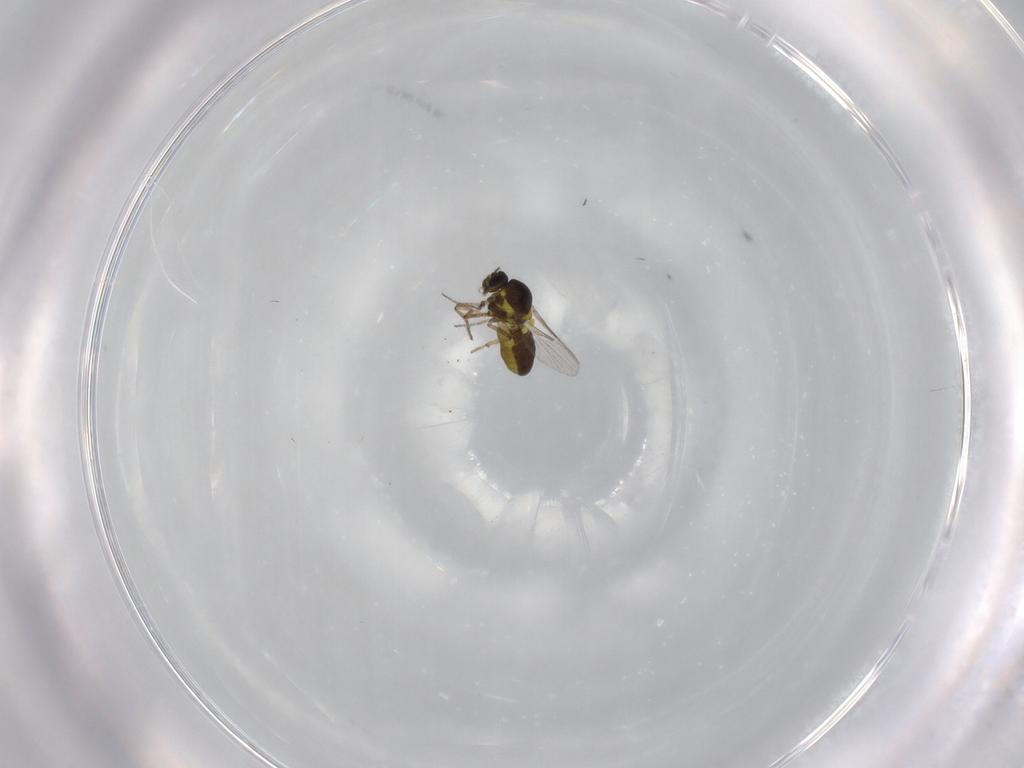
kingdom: Animalia
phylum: Arthropoda
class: Insecta
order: Diptera
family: Ceratopogonidae
